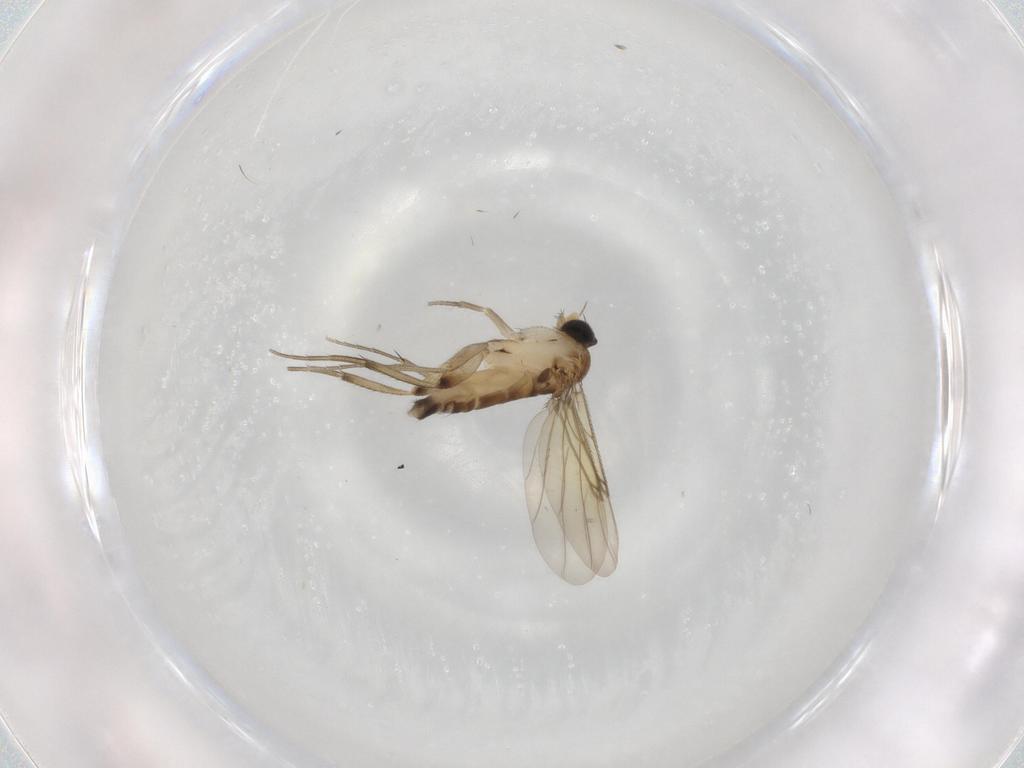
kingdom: Animalia
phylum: Arthropoda
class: Insecta
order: Diptera
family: Phoridae
